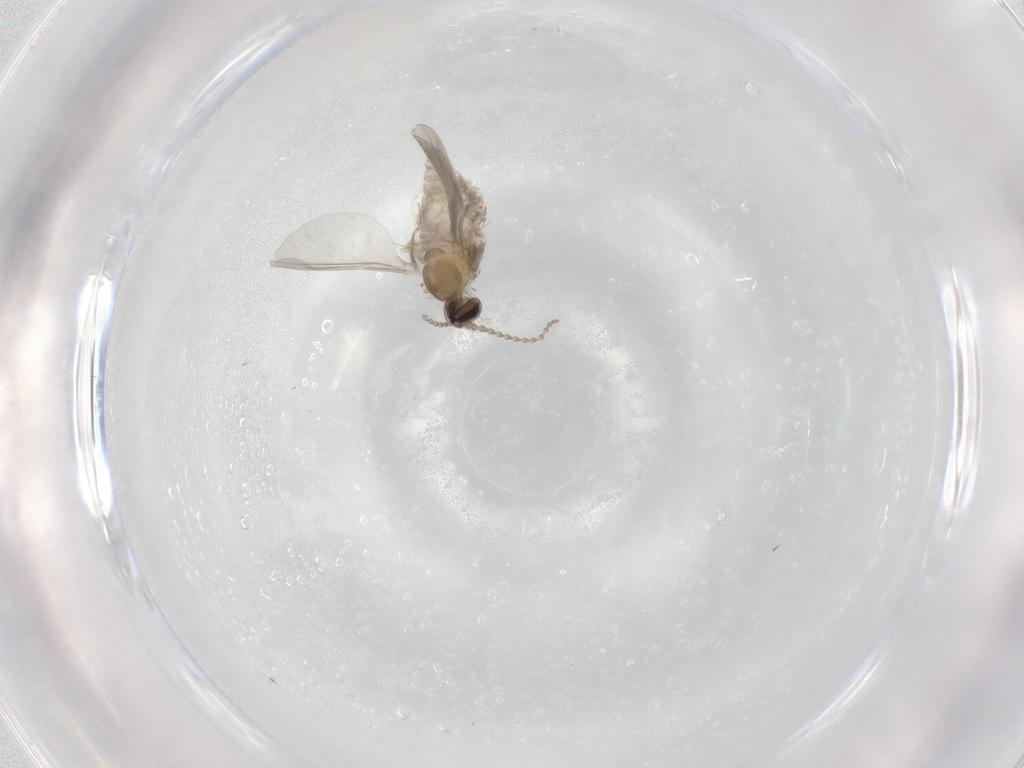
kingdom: Animalia
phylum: Arthropoda
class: Insecta
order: Diptera
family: Cecidomyiidae
